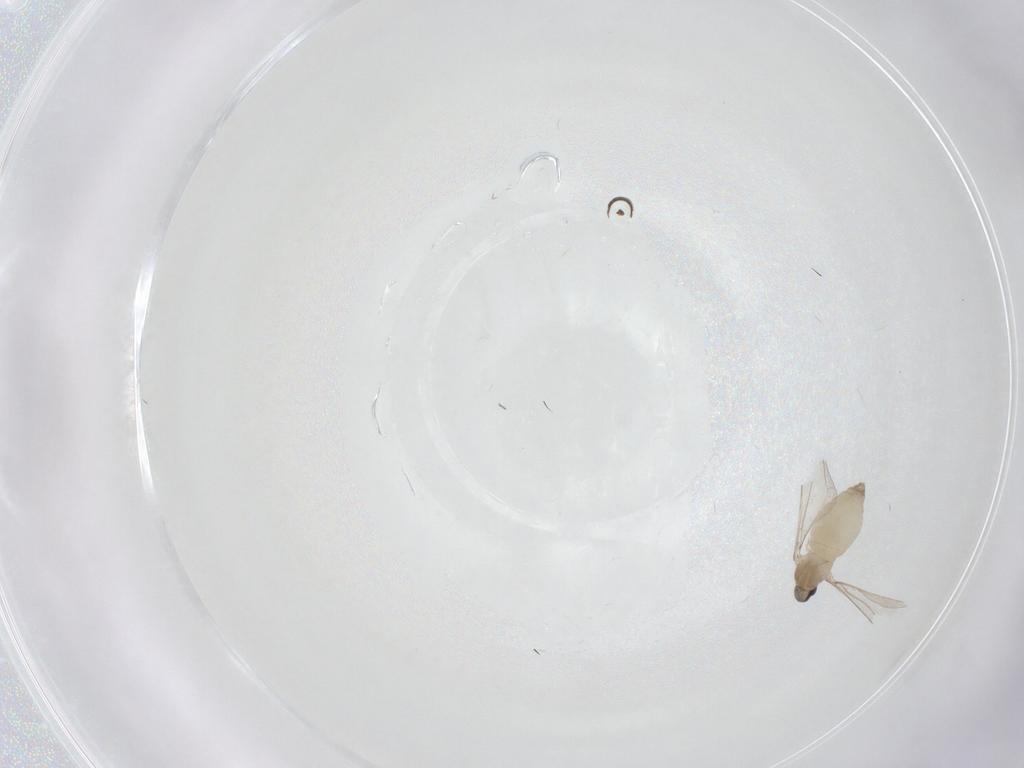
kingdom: Animalia
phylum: Arthropoda
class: Insecta
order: Diptera
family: Cecidomyiidae
